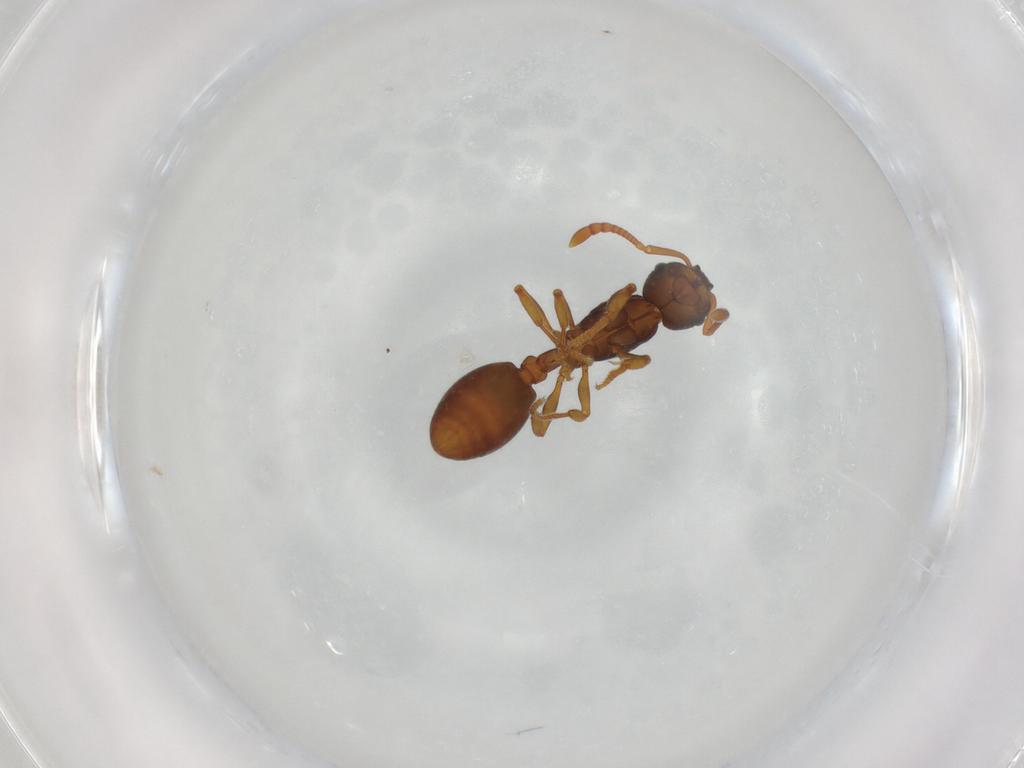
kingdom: Animalia
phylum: Arthropoda
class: Insecta
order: Hymenoptera
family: Formicidae
